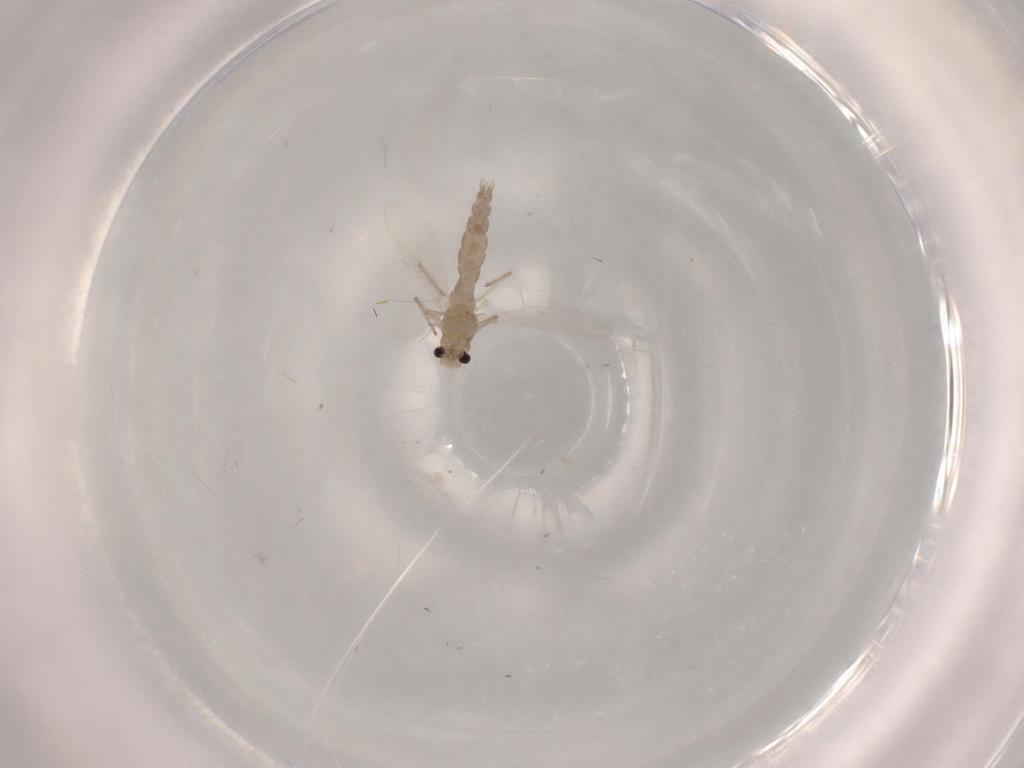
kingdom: Animalia
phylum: Arthropoda
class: Insecta
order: Diptera
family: Chironomidae
